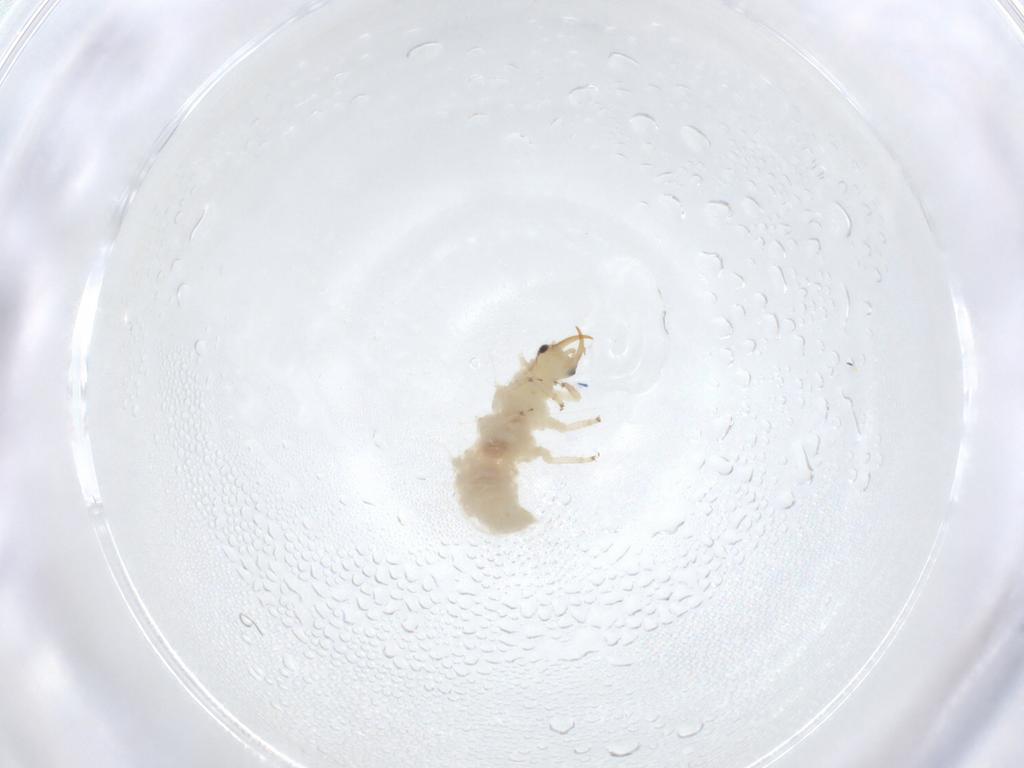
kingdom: Animalia
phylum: Arthropoda
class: Insecta
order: Neuroptera
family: Chrysopidae
